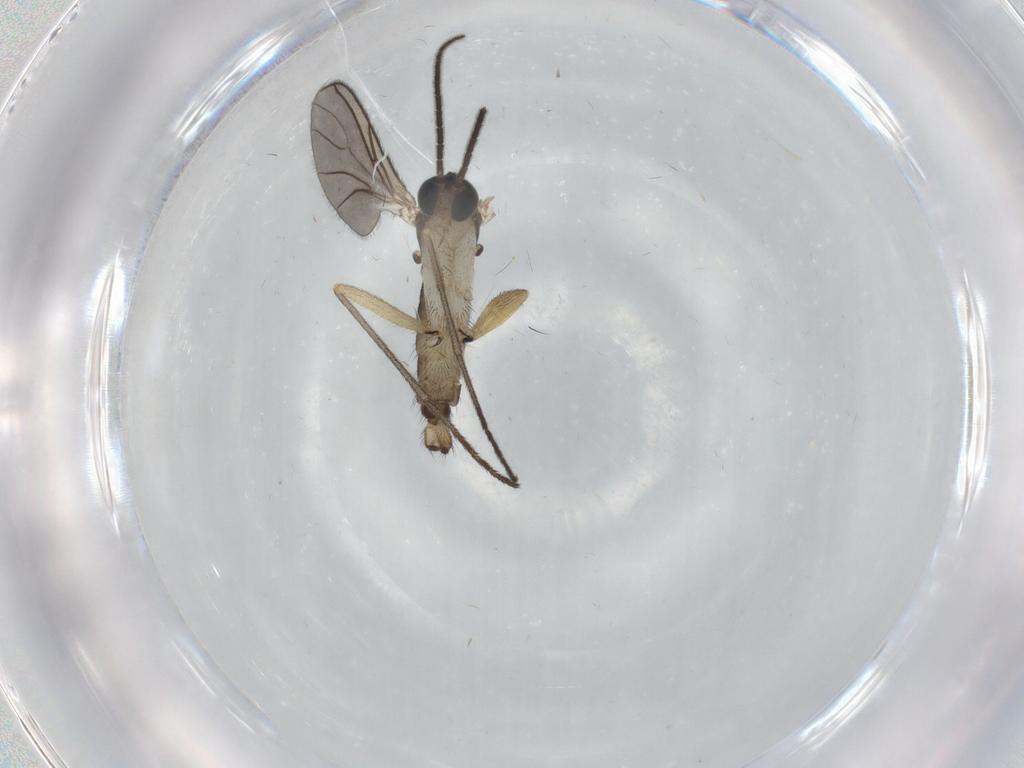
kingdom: Animalia
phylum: Arthropoda
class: Insecta
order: Diptera
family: Sciaridae
